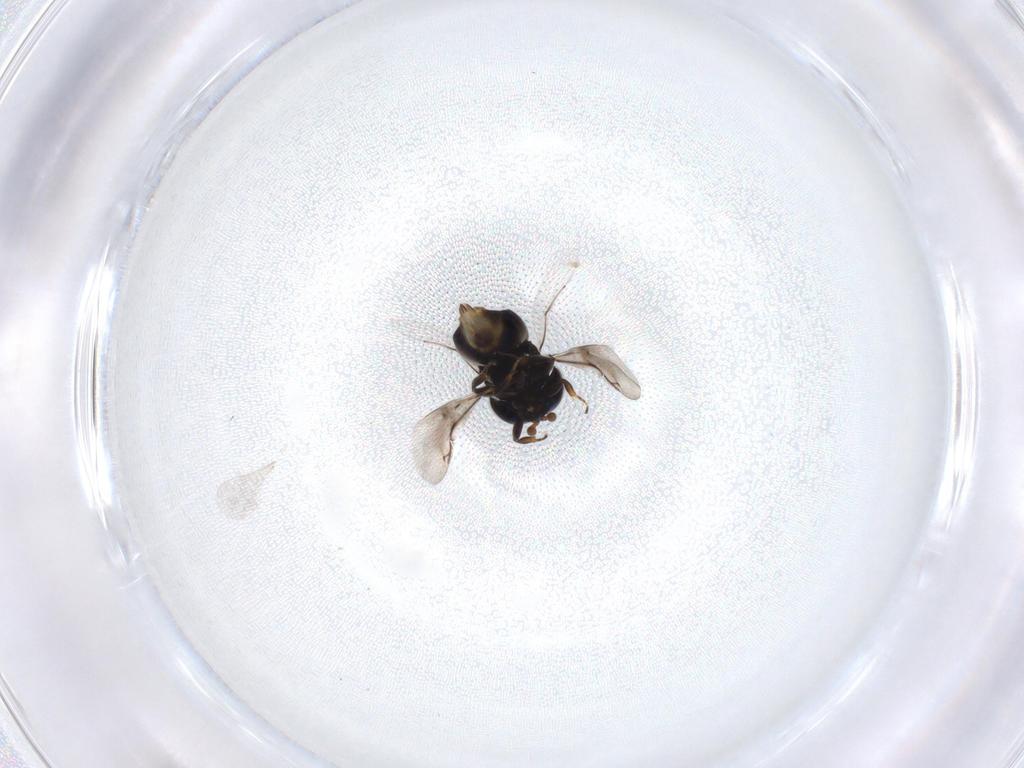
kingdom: Animalia
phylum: Arthropoda
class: Insecta
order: Hymenoptera
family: Encyrtidae
